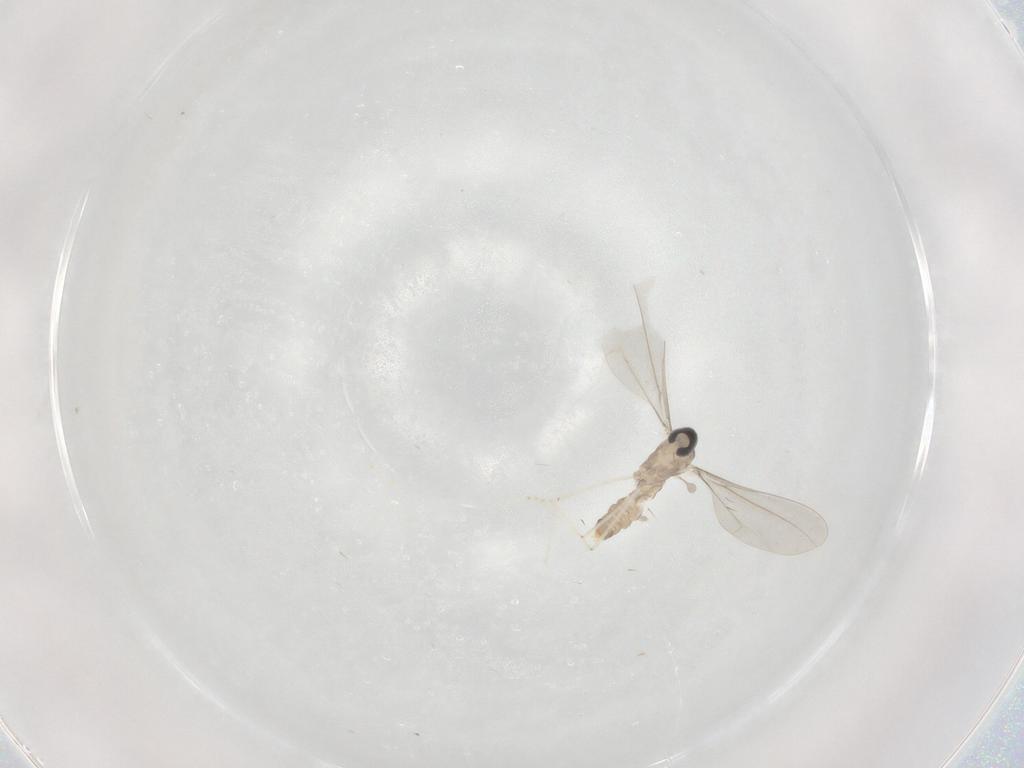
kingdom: Animalia
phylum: Arthropoda
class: Insecta
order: Diptera
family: Cecidomyiidae
